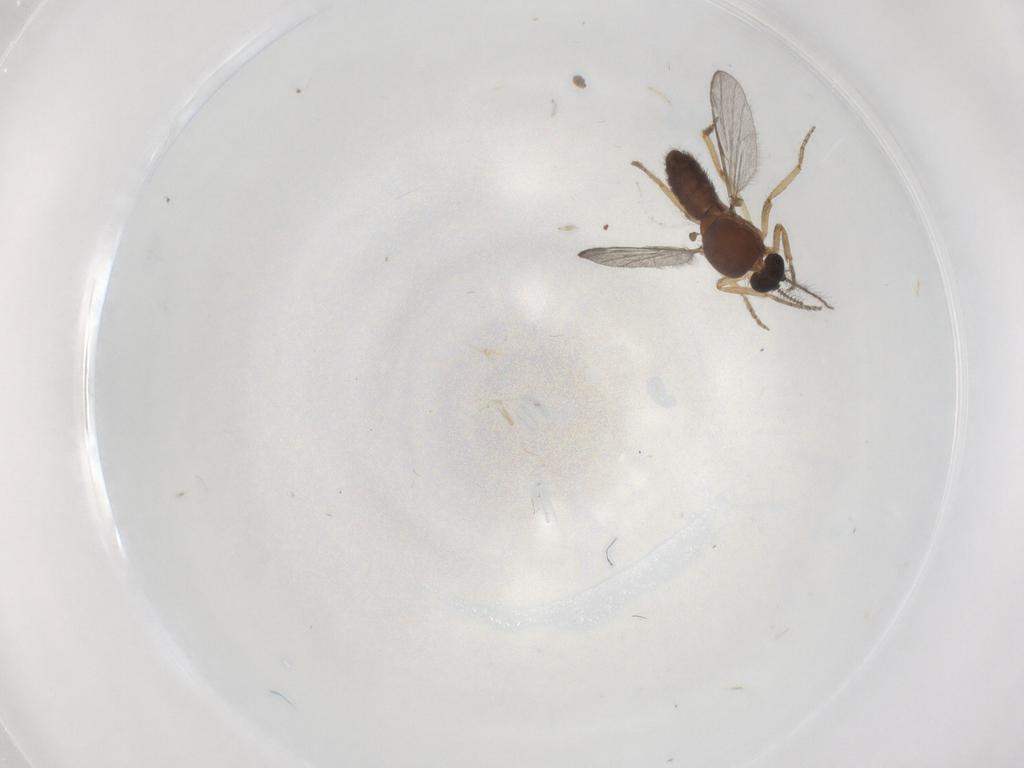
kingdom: Animalia
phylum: Arthropoda
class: Insecta
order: Diptera
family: Ceratopogonidae
